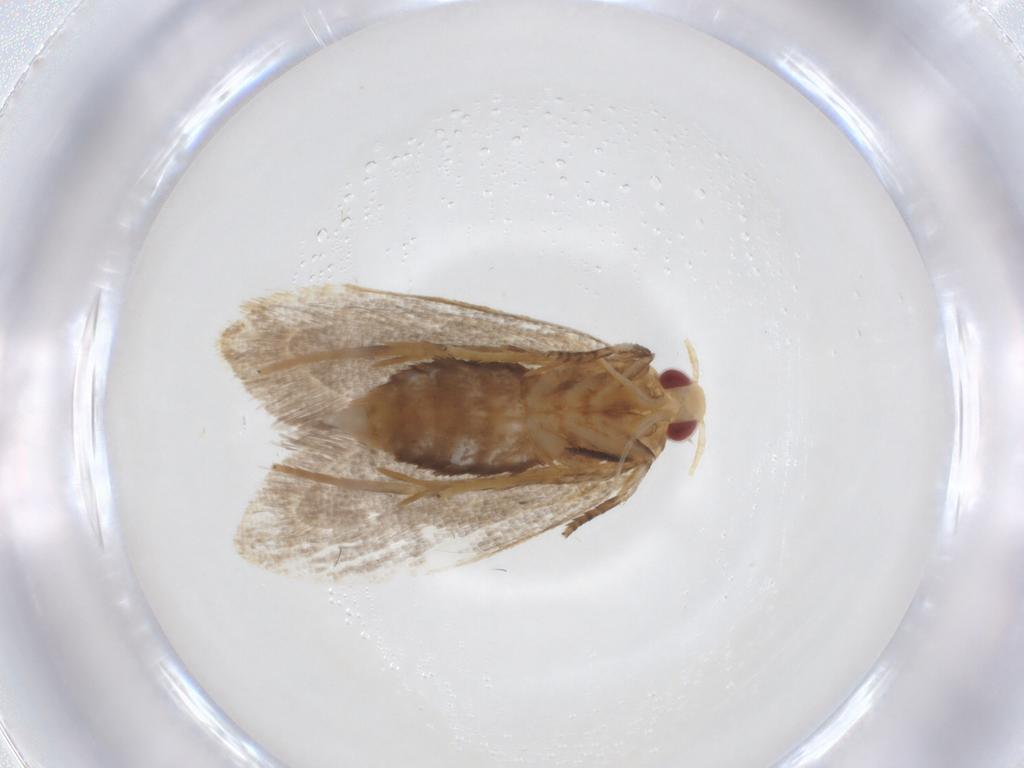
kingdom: Animalia
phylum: Arthropoda
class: Insecta
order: Lepidoptera
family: Oecophoridae
